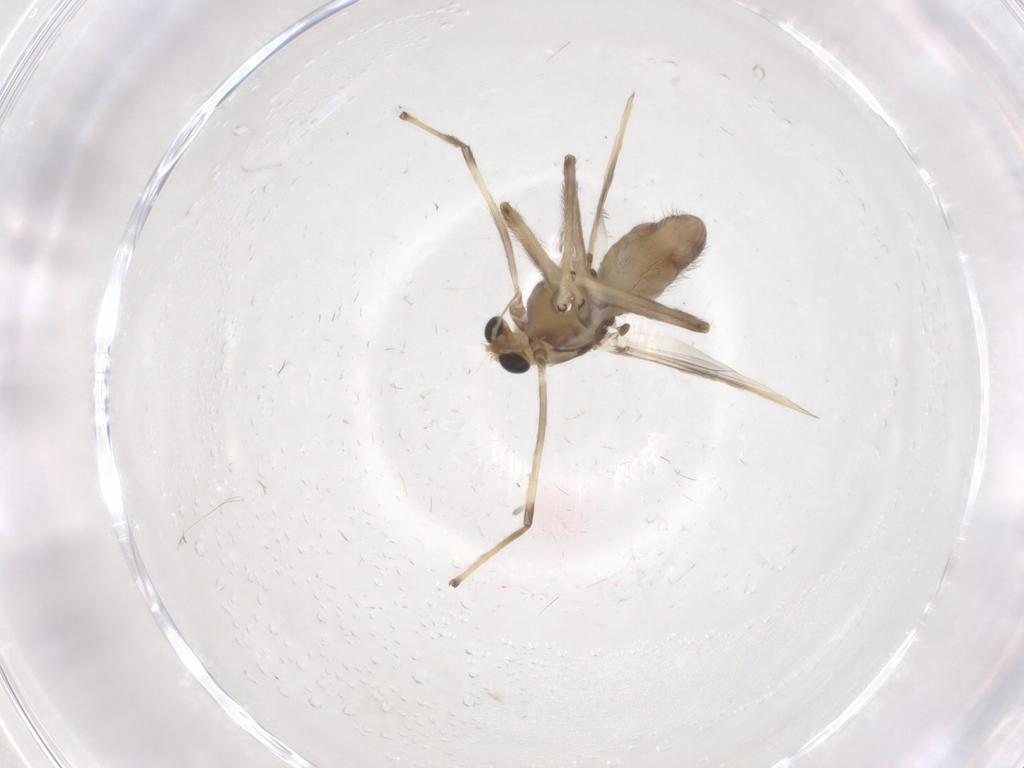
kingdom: Animalia
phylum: Arthropoda
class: Insecta
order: Diptera
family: Chironomidae
